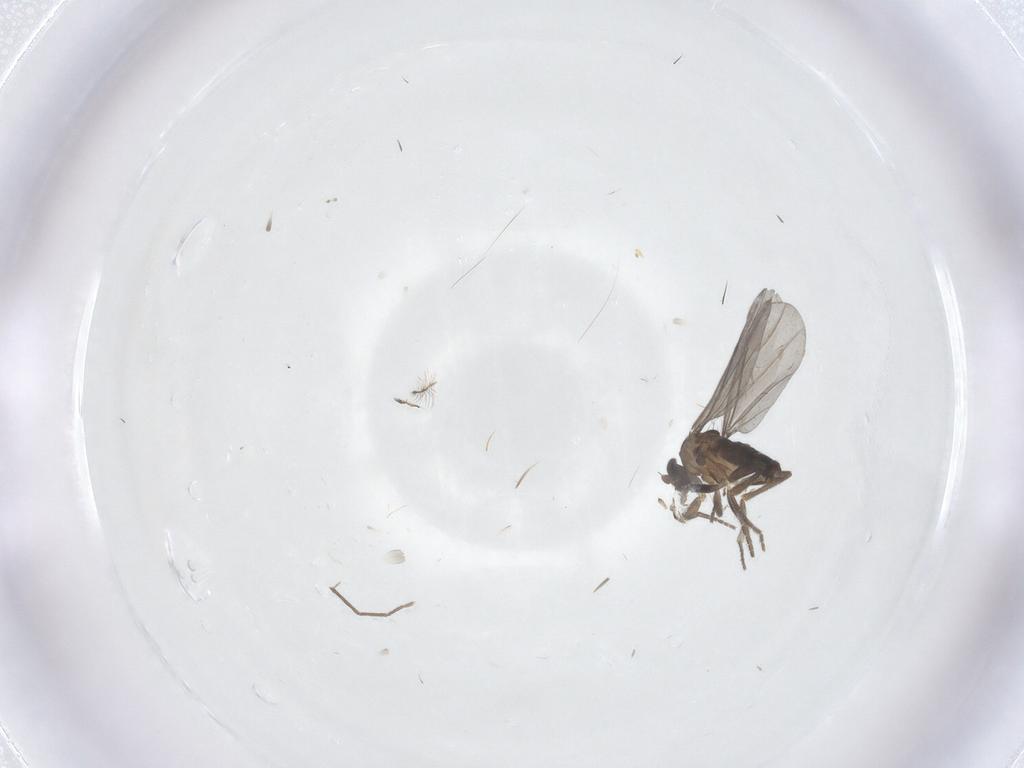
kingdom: Animalia
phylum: Arthropoda
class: Insecta
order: Diptera
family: Phoridae
